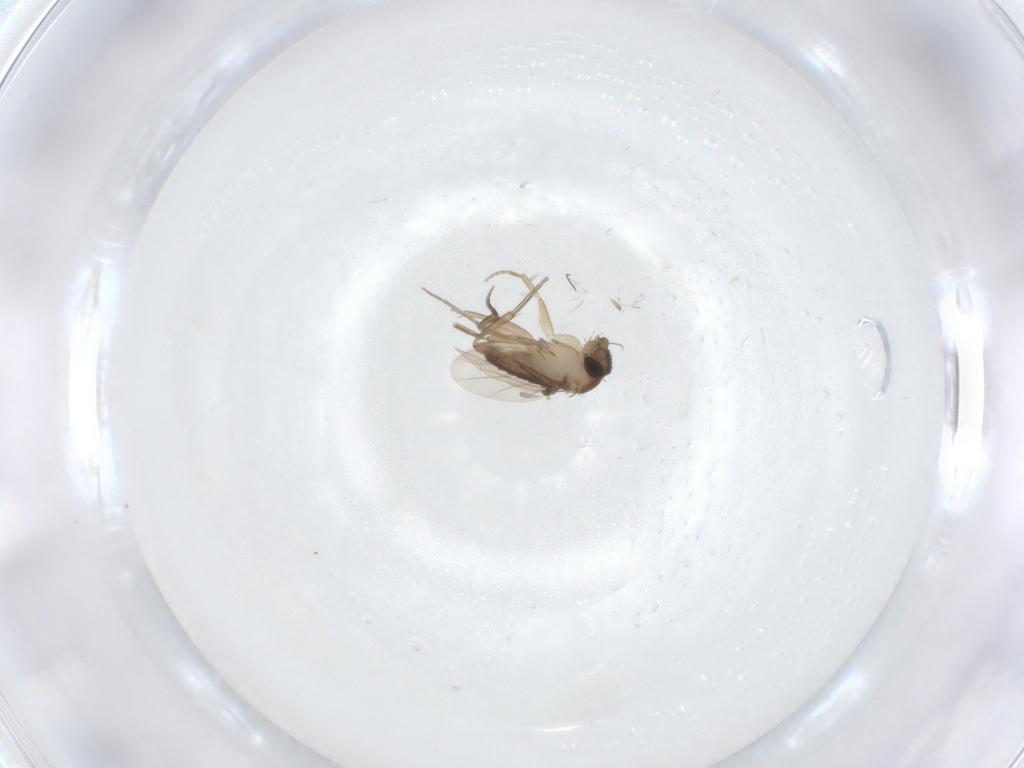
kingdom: Animalia
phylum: Arthropoda
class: Insecta
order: Diptera
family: Phoridae
